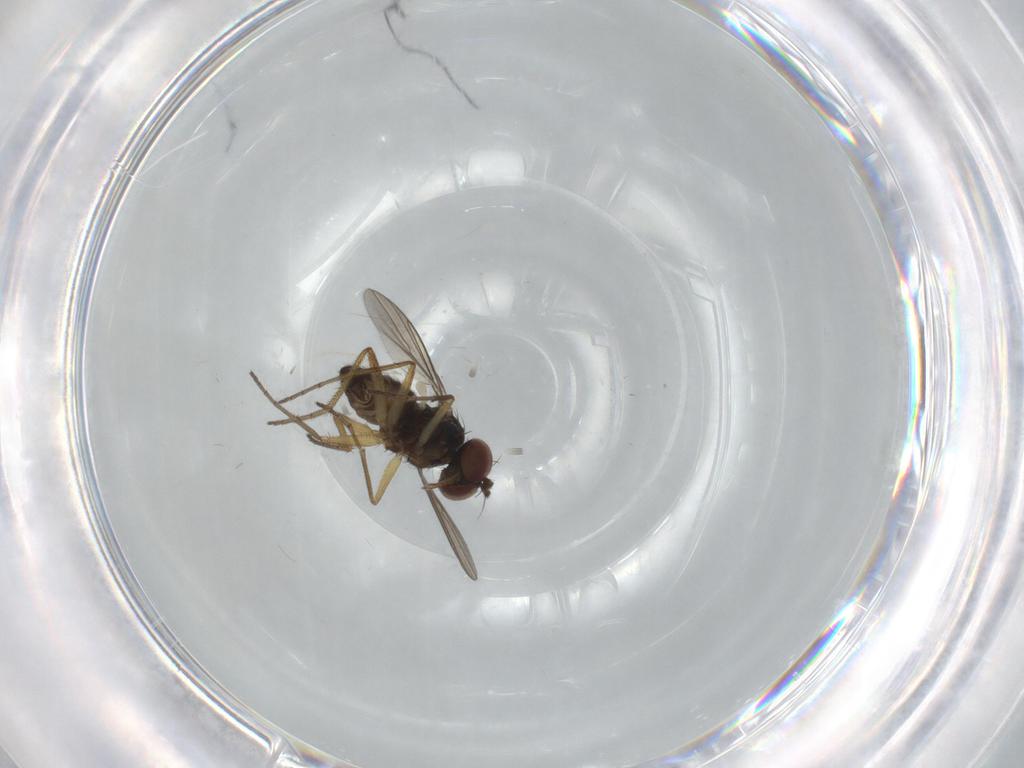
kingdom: Animalia
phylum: Arthropoda
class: Insecta
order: Diptera
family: Dolichopodidae
